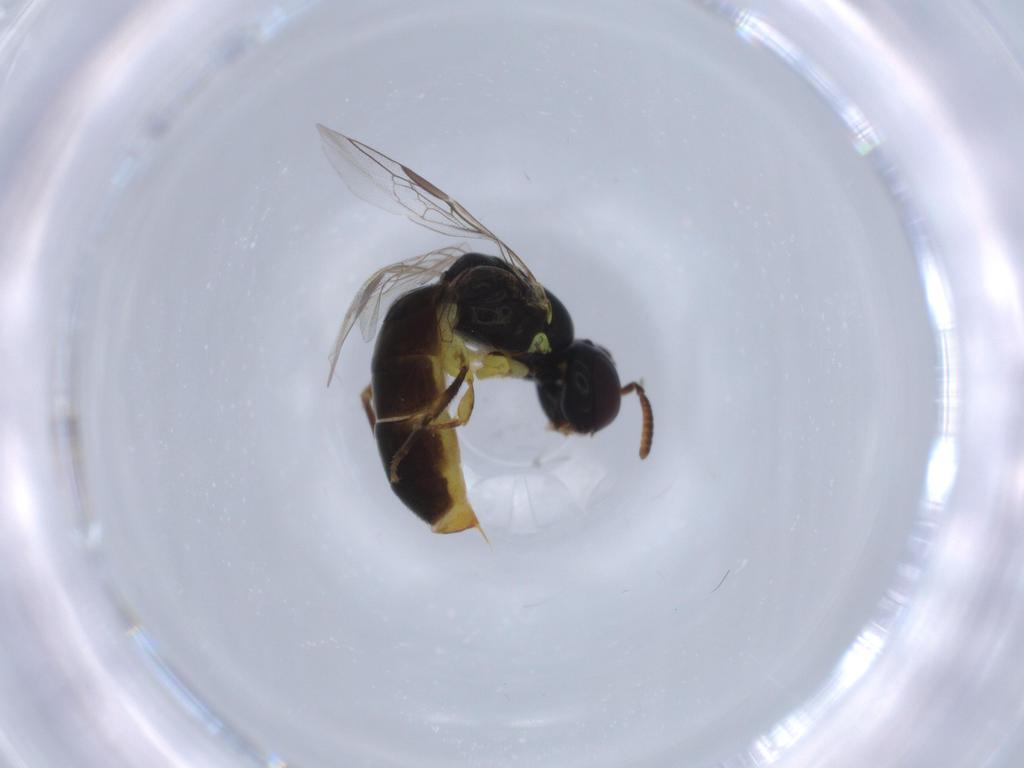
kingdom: Animalia
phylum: Arthropoda
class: Insecta
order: Hymenoptera
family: Colletidae
